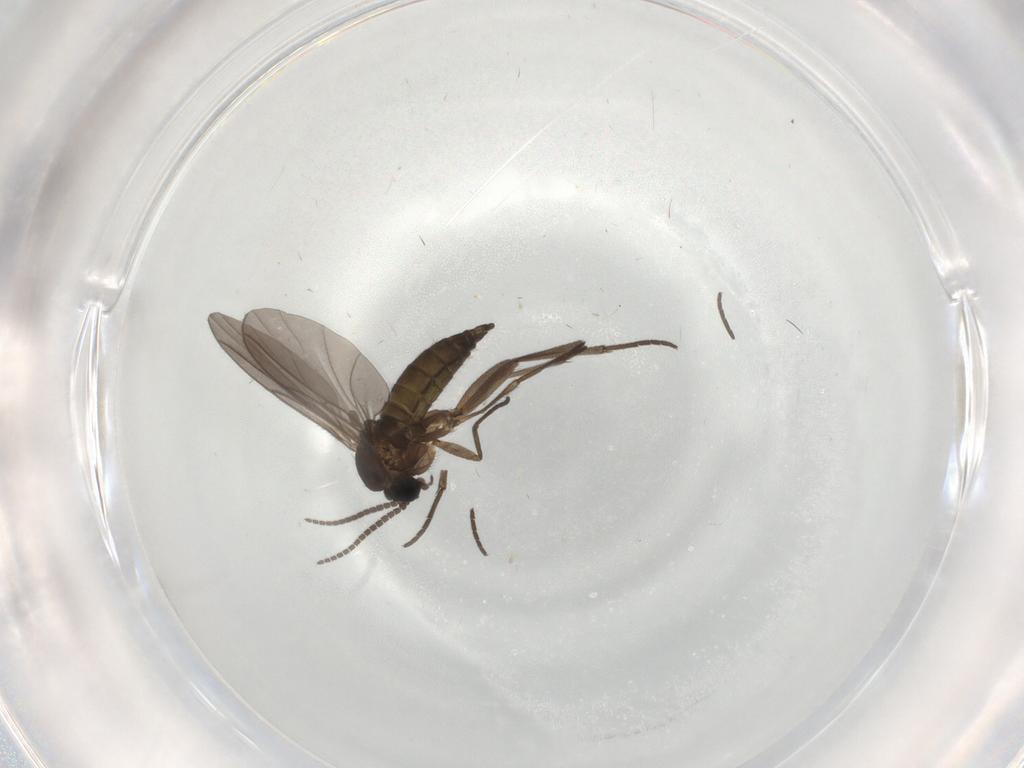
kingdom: Animalia
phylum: Arthropoda
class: Insecta
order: Diptera
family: Sciaridae
